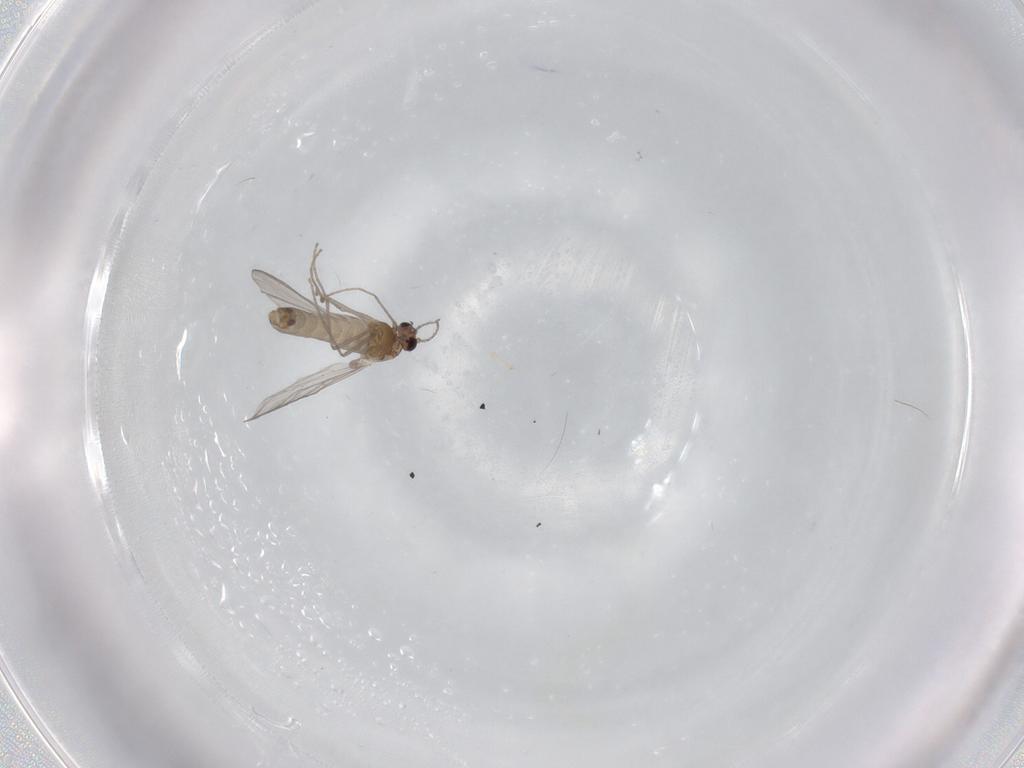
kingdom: Animalia
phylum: Arthropoda
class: Insecta
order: Diptera
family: Chironomidae
